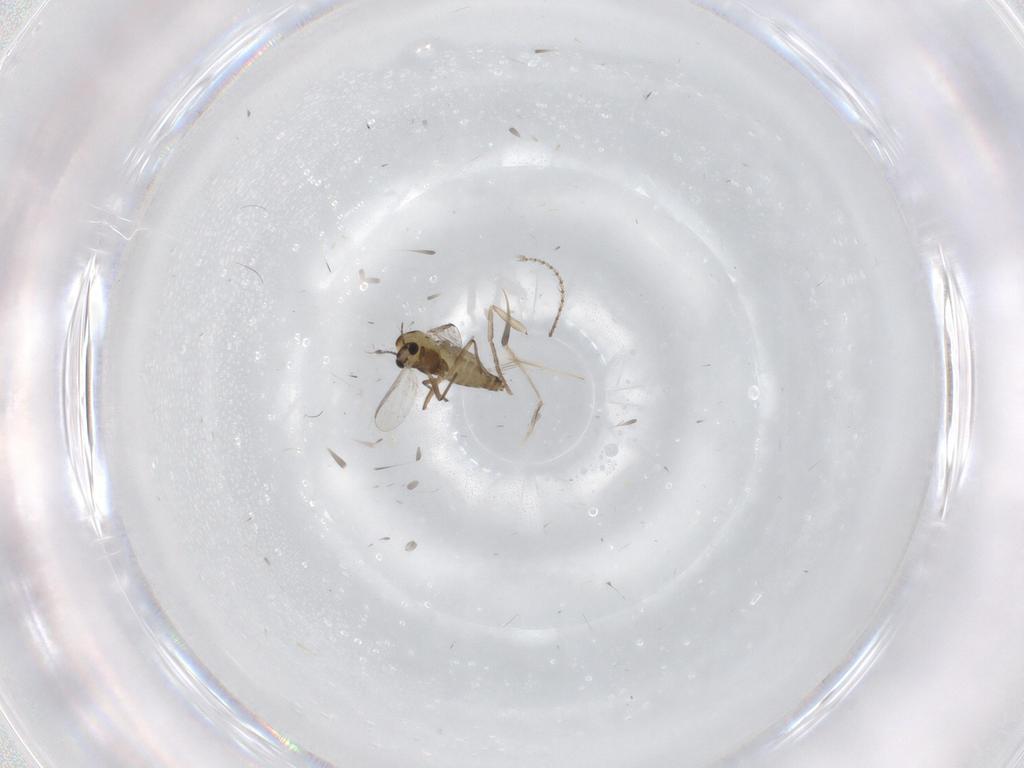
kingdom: Animalia
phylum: Arthropoda
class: Insecta
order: Diptera
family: Chironomidae
